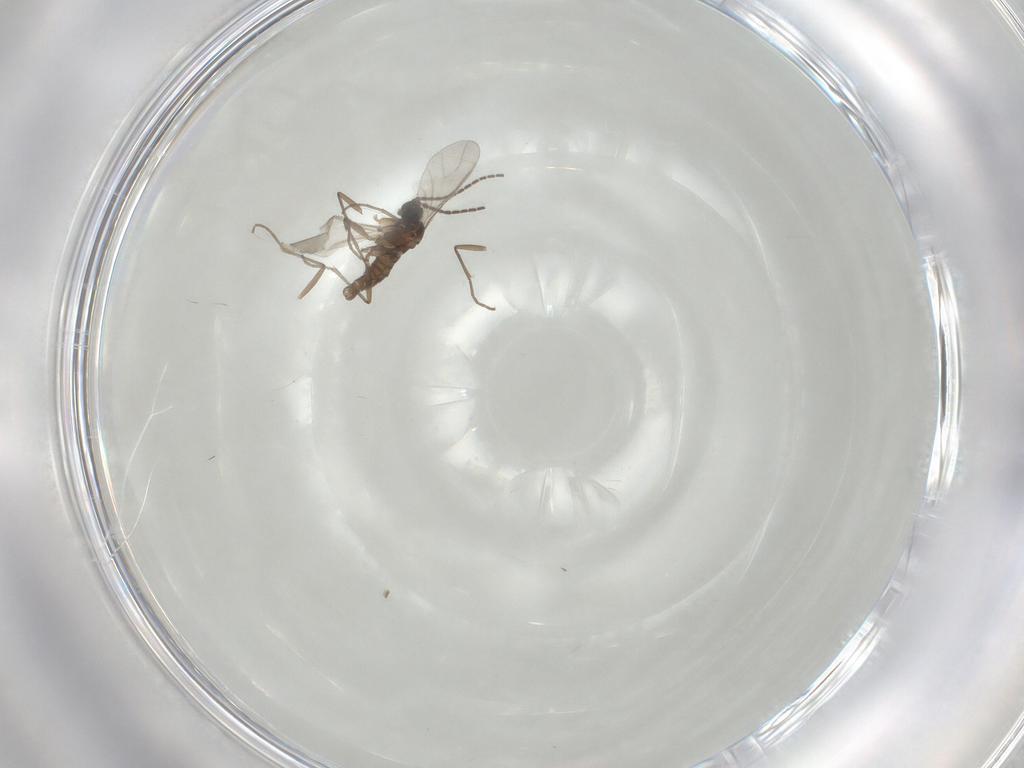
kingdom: Animalia
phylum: Arthropoda
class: Insecta
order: Diptera
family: Sciaridae
